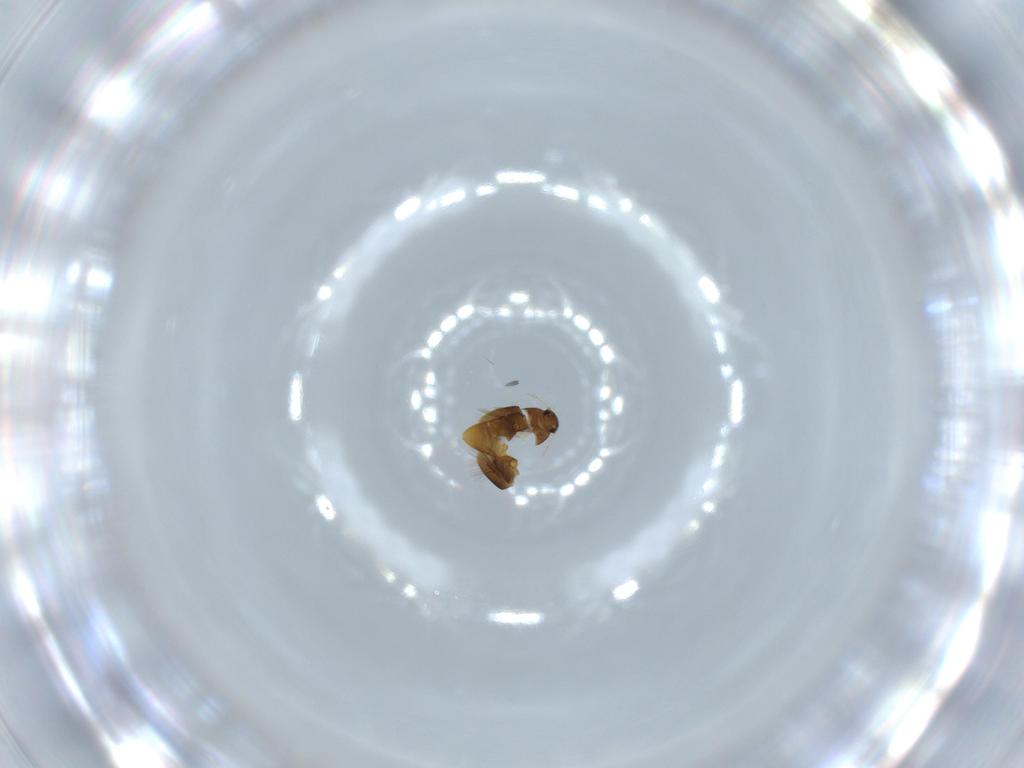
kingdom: Animalia
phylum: Arthropoda
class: Insecta
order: Coleoptera
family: Ptiliidae
